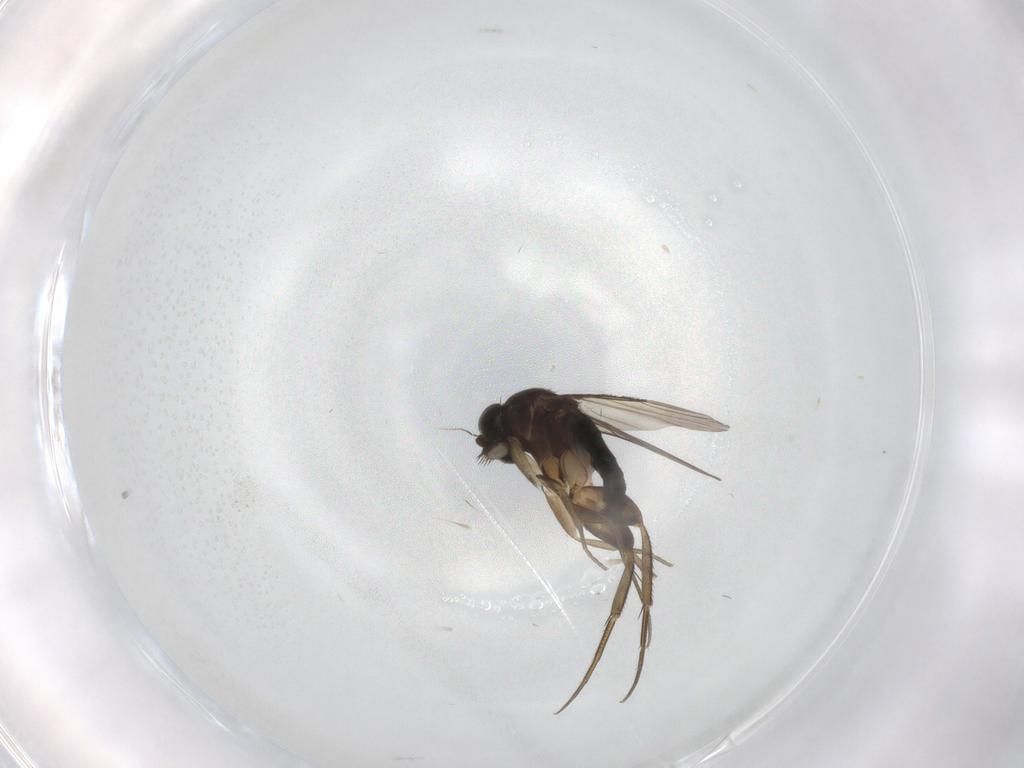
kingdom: Animalia
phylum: Arthropoda
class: Insecta
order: Diptera
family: Phoridae
